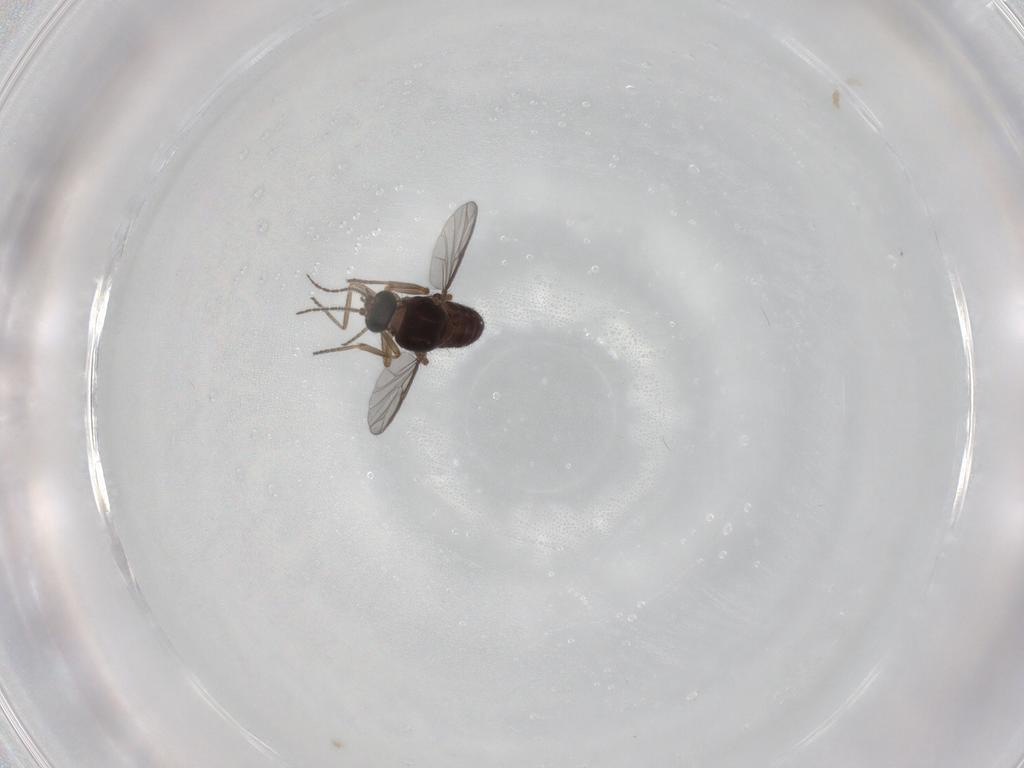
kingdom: Animalia
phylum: Arthropoda
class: Insecta
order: Diptera
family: Ceratopogonidae
